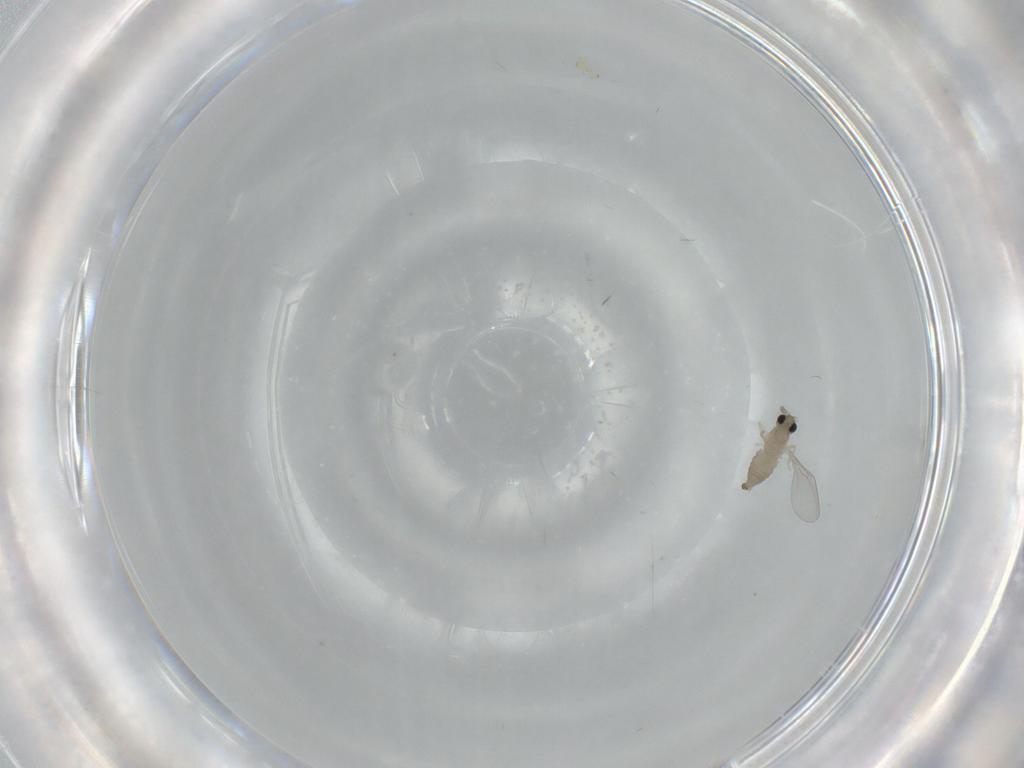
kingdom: Animalia
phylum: Arthropoda
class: Insecta
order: Diptera
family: Cecidomyiidae
